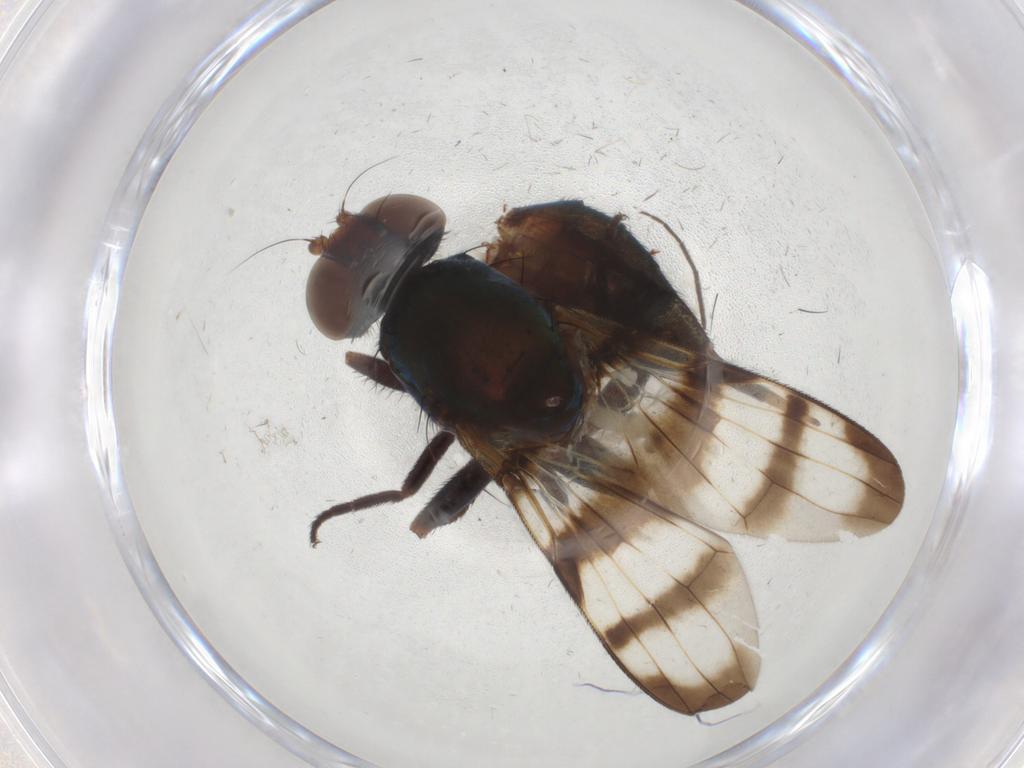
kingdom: Animalia
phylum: Arthropoda
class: Insecta
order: Diptera
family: Ulidiidae
